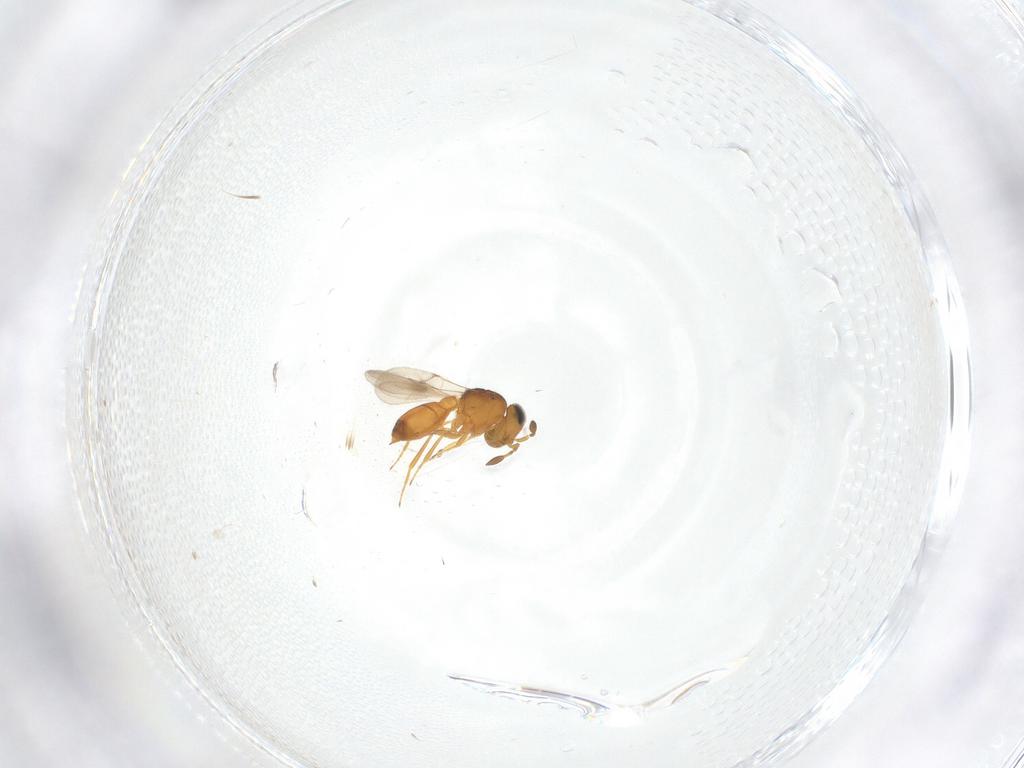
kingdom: Animalia
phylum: Arthropoda
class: Insecta
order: Hymenoptera
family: Scelionidae
